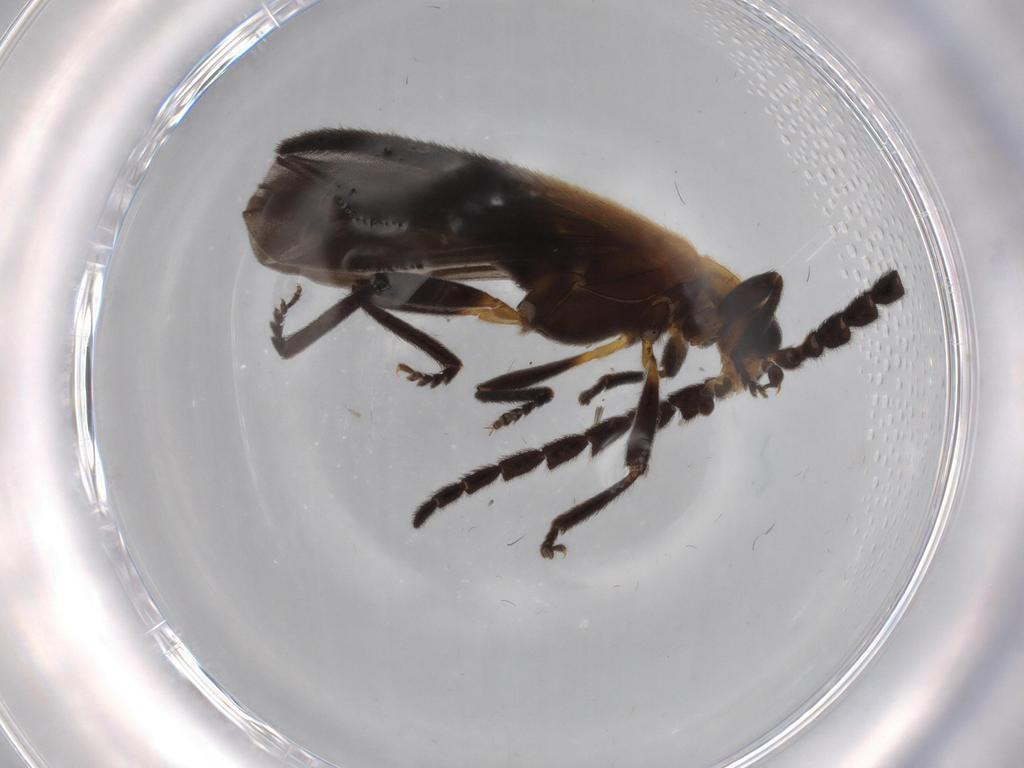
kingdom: Animalia
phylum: Arthropoda
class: Insecta
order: Coleoptera
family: Lycidae
